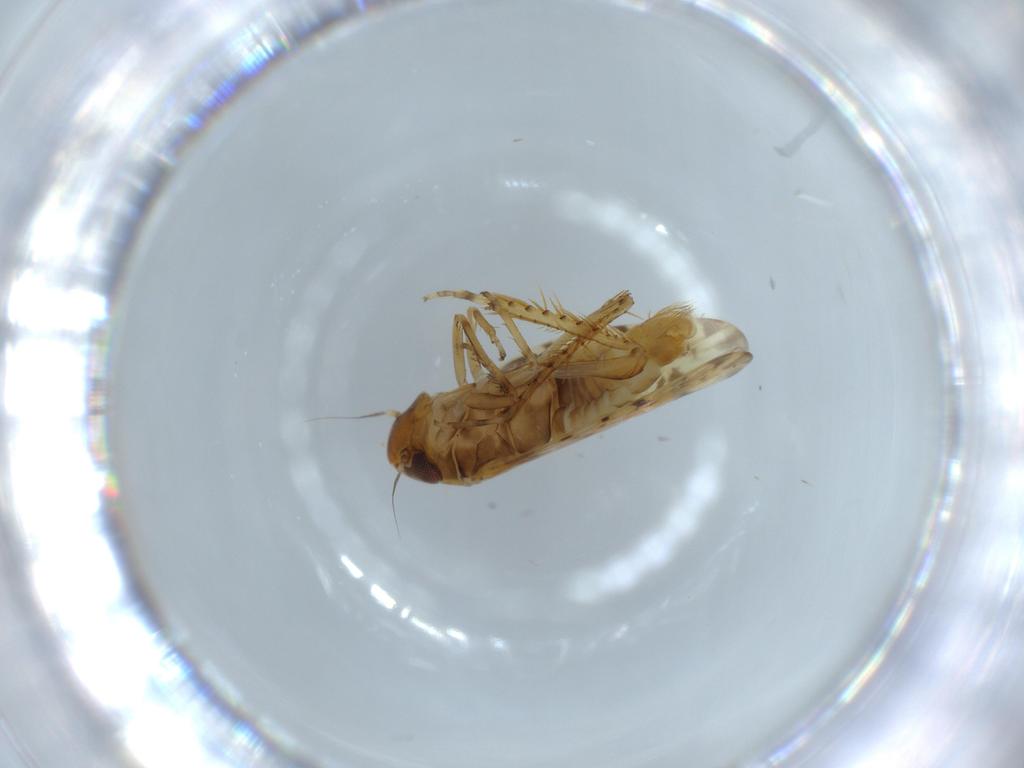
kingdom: Animalia
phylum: Arthropoda
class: Insecta
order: Hemiptera
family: Cicadellidae
